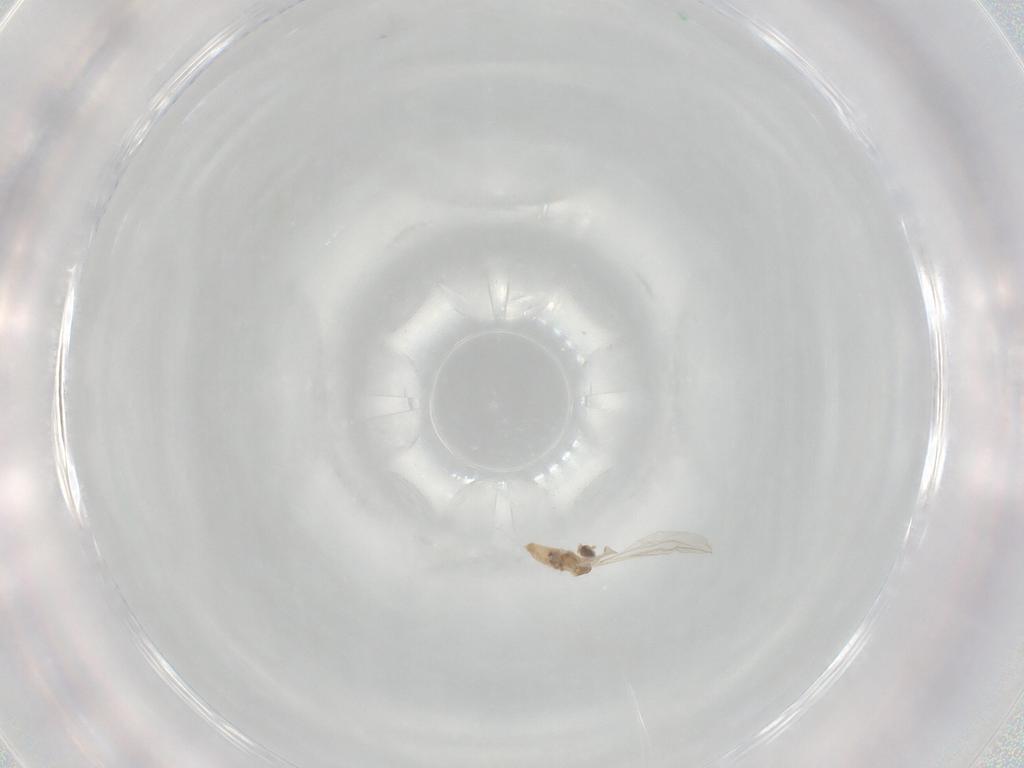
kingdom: Animalia
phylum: Arthropoda
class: Insecta
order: Diptera
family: Cecidomyiidae
